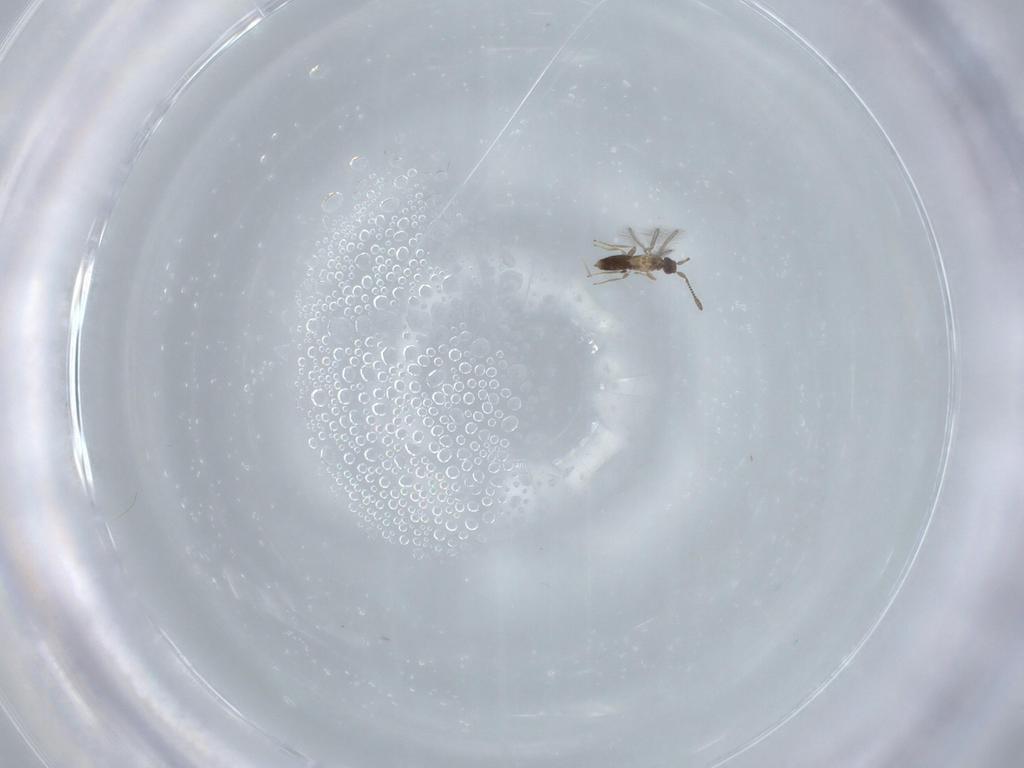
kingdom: Animalia
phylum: Arthropoda
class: Insecta
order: Hymenoptera
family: Mymaridae
